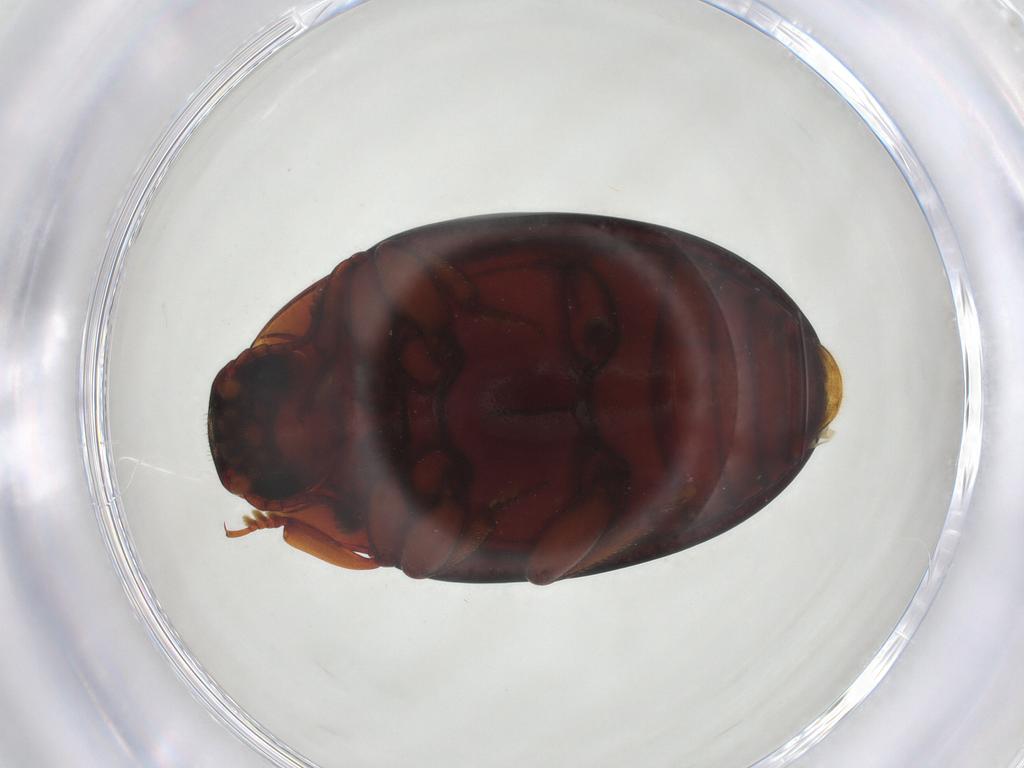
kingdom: Animalia
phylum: Arthropoda
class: Insecta
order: Coleoptera
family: Zopheridae
